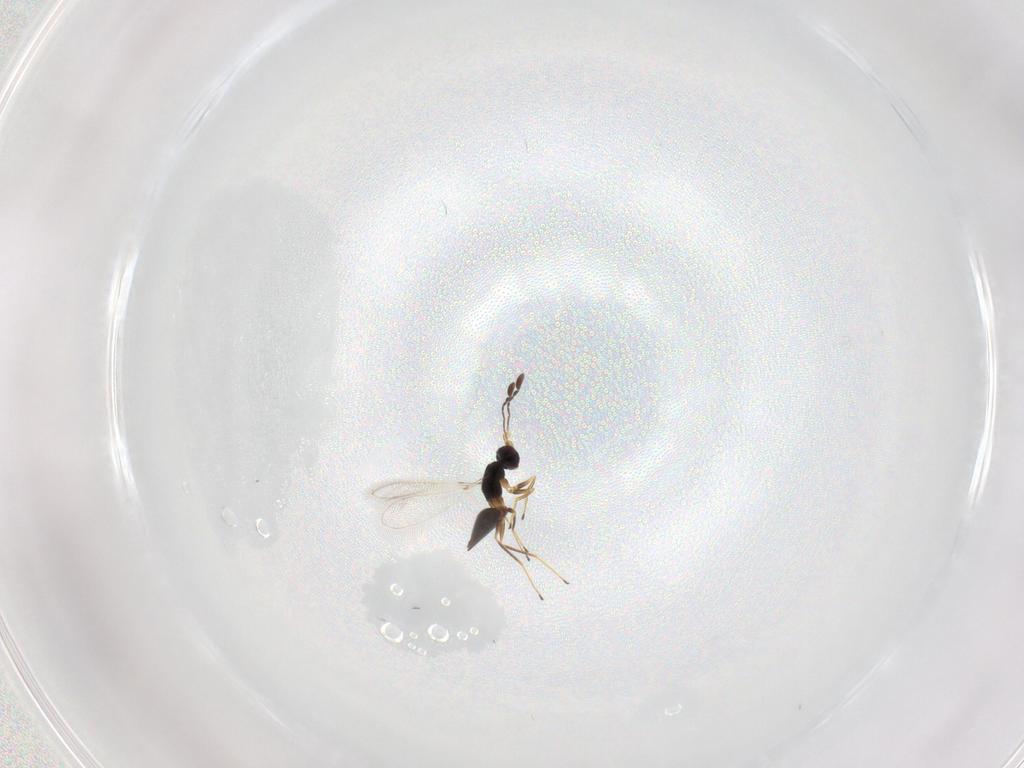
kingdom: Animalia
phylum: Arthropoda
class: Insecta
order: Hymenoptera
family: Mymaridae
